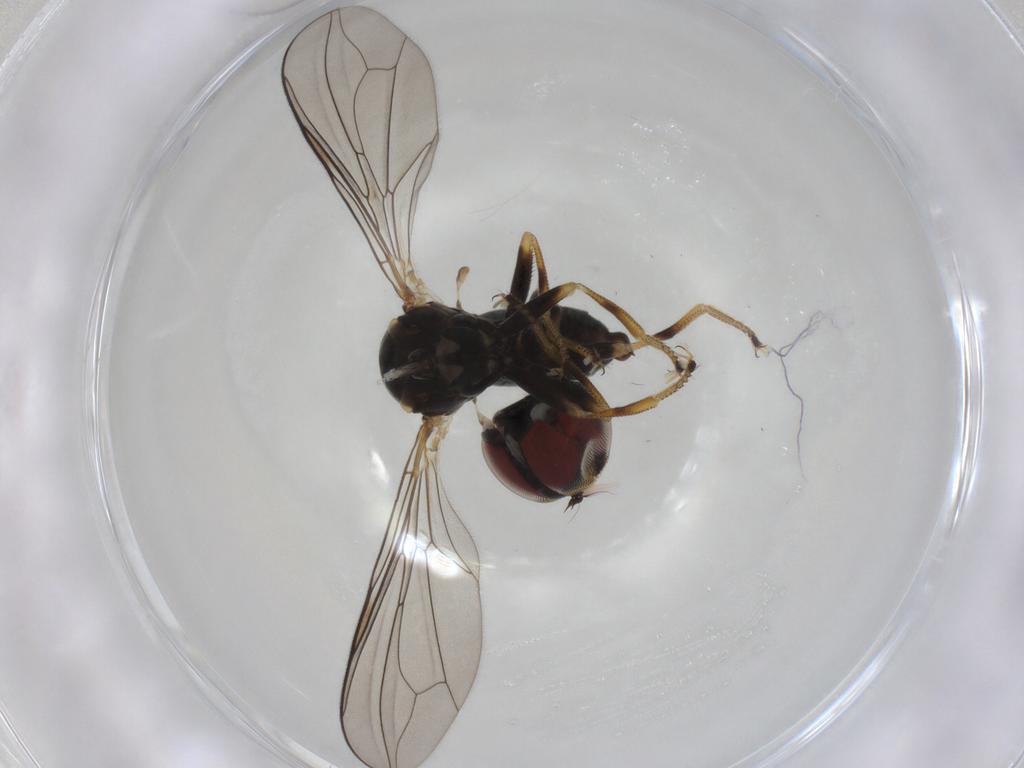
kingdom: Animalia
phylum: Arthropoda
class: Insecta
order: Diptera
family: Pipunculidae
